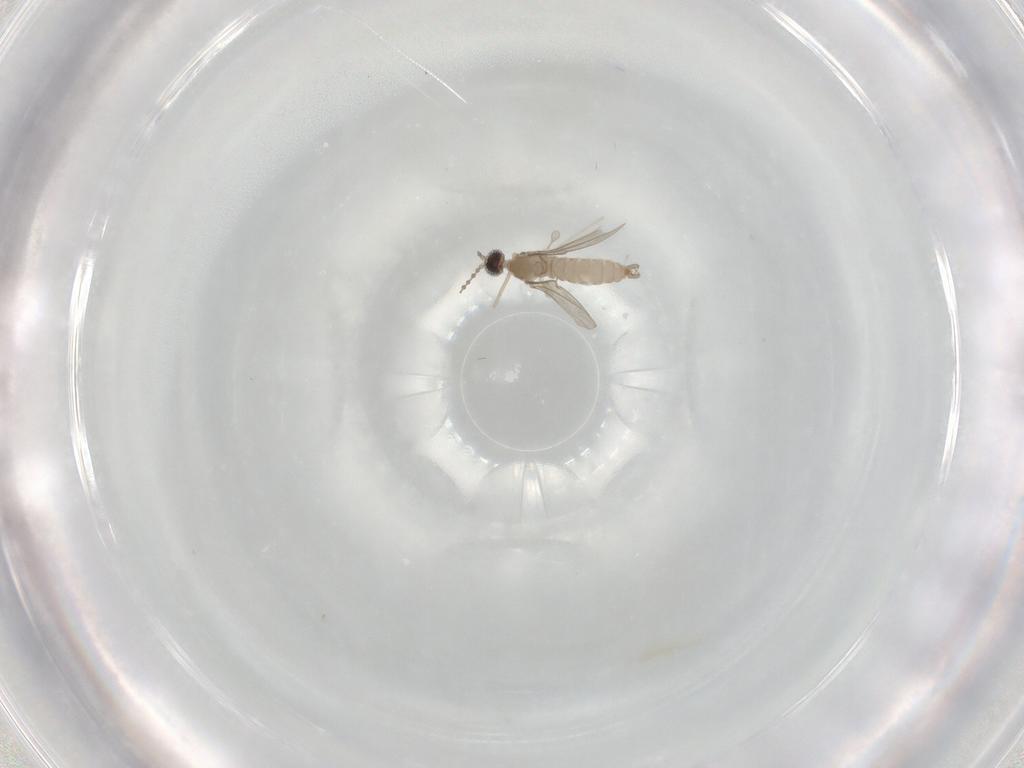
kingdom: Animalia
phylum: Arthropoda
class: Insecta
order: Diptera
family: Chironomidae
